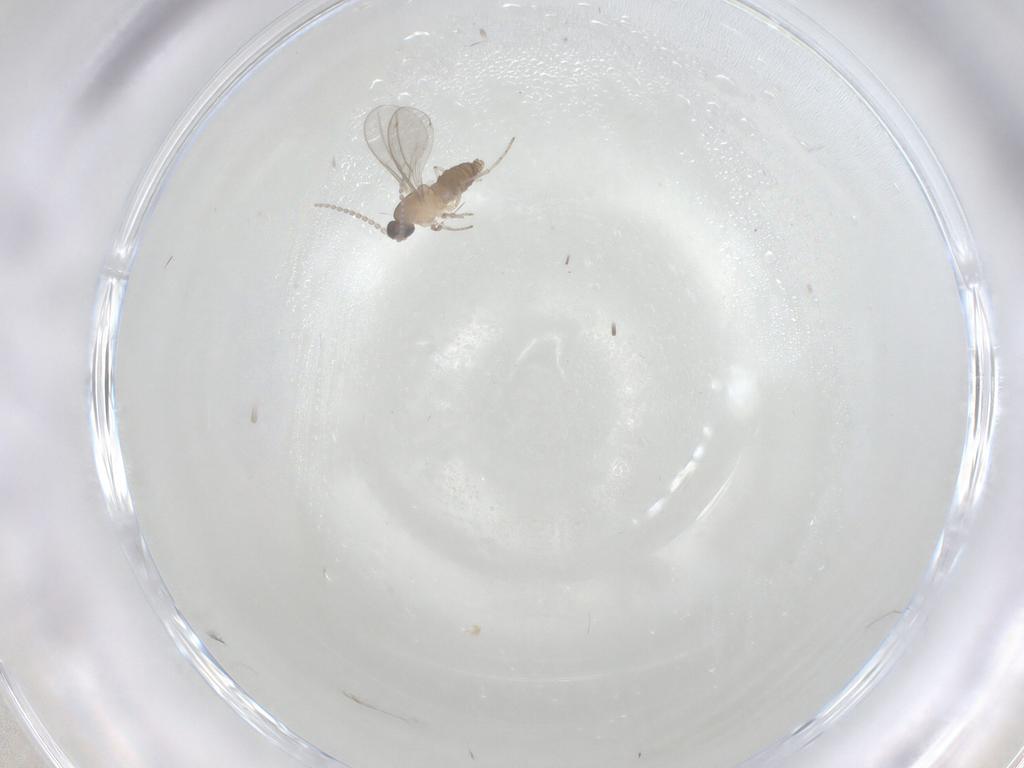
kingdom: Animalia
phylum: Arthropoda
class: Insecta
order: Diptera
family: Cecidomyiidae
